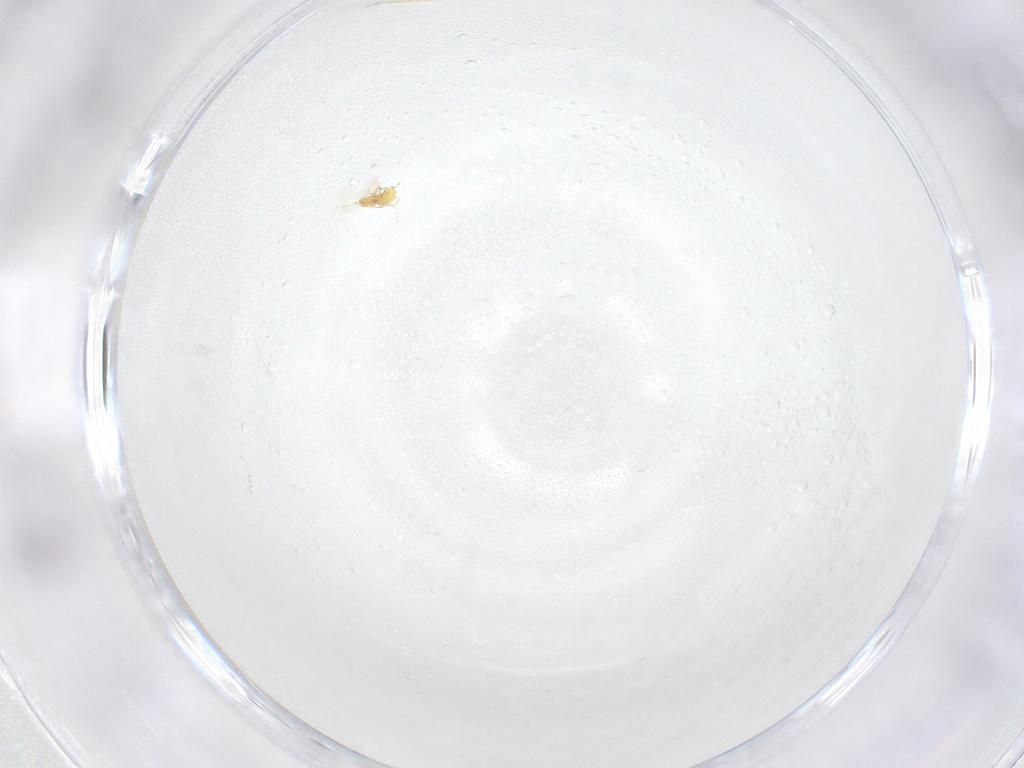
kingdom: Animalia
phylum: Arthropoda
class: Insecta
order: Hymenoptera
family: Trichogrammatidae
